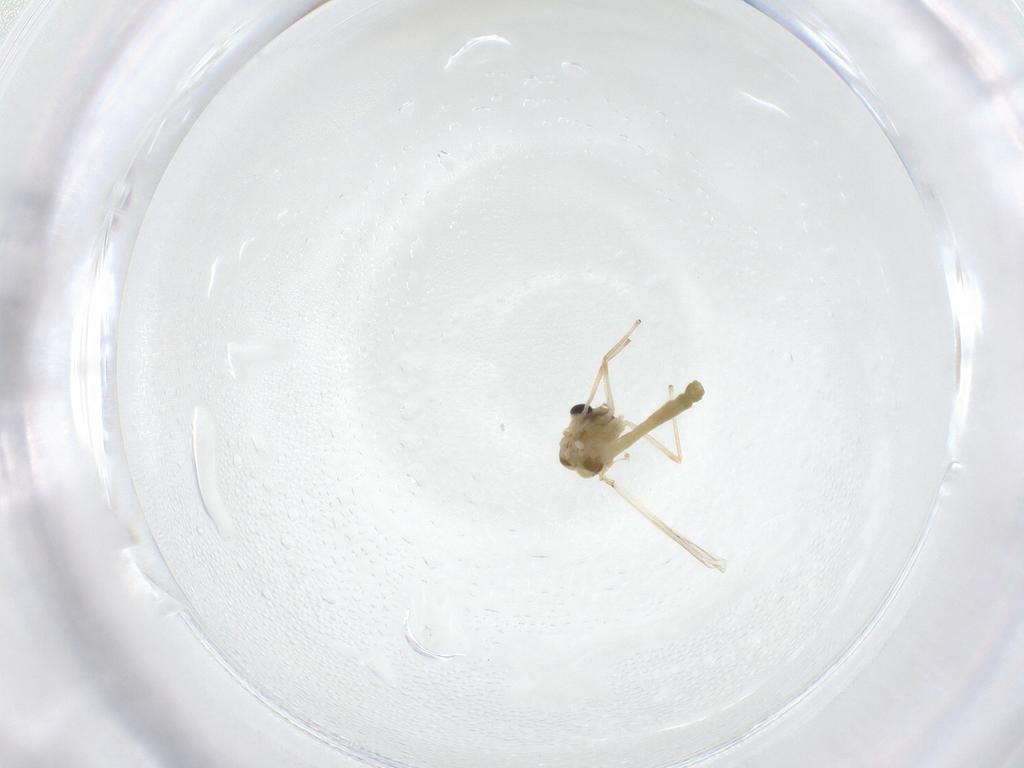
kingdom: Animalia
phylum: Arthropoda
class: Insecta
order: Diptera
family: Chironomidae
